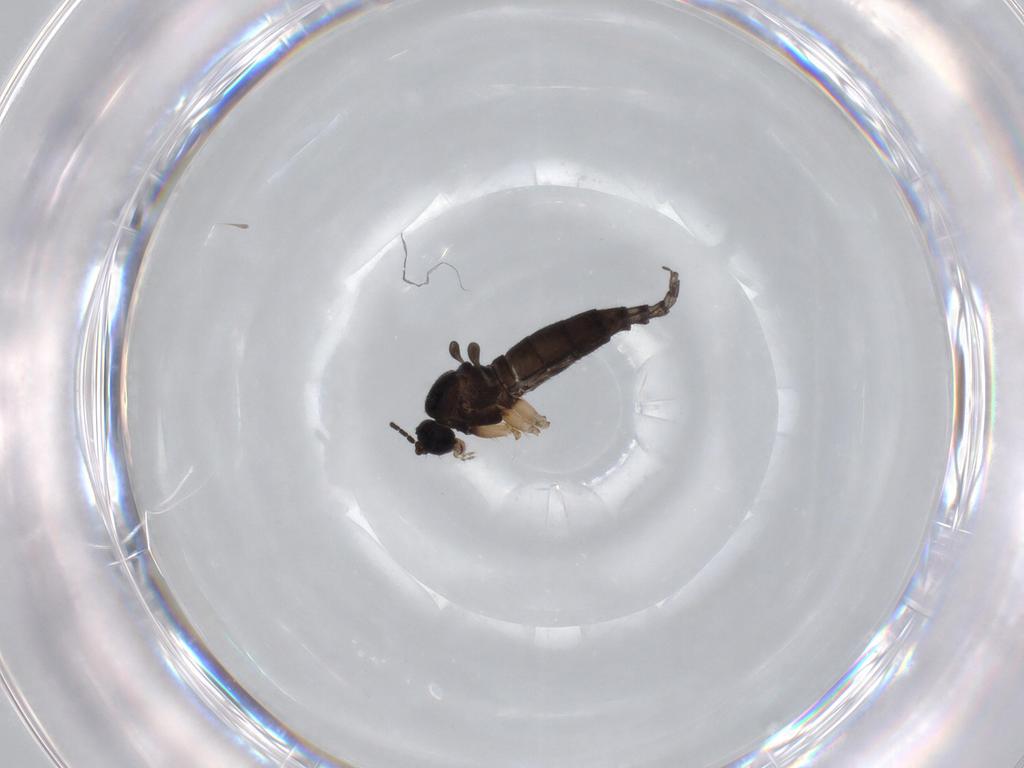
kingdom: Animalia
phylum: Arthropoda
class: Insecta
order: Diptera
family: Sciaridae
